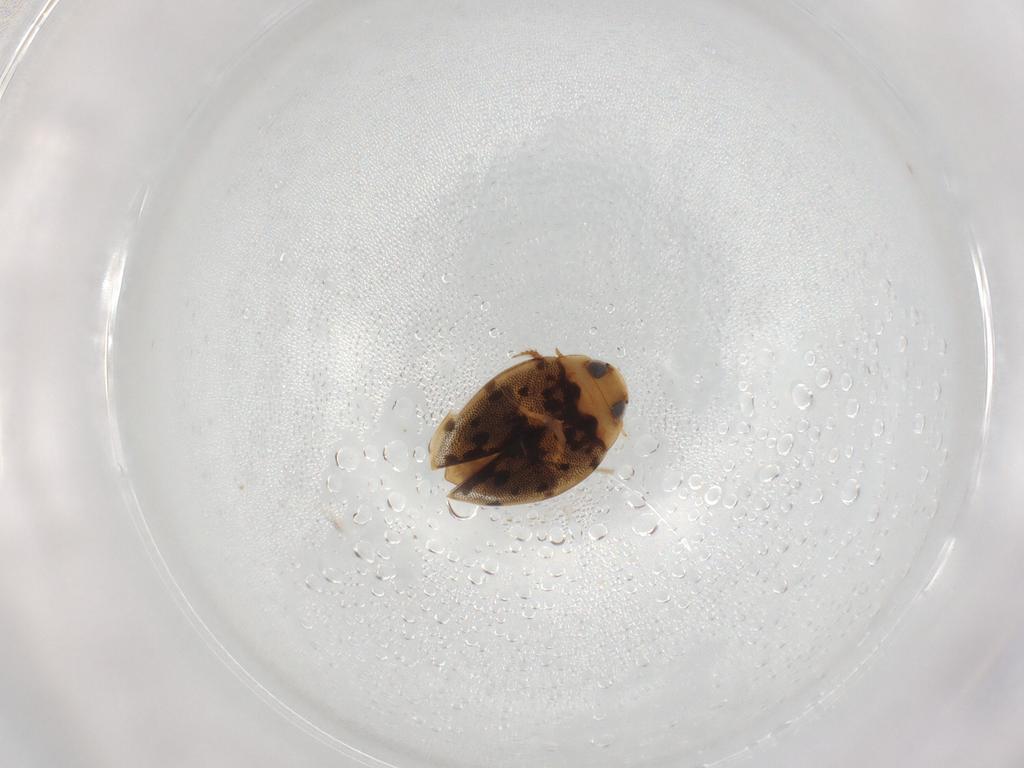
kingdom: Animalia
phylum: Arthropoda
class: Insecta
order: Coleoptera
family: Dytiscidae
